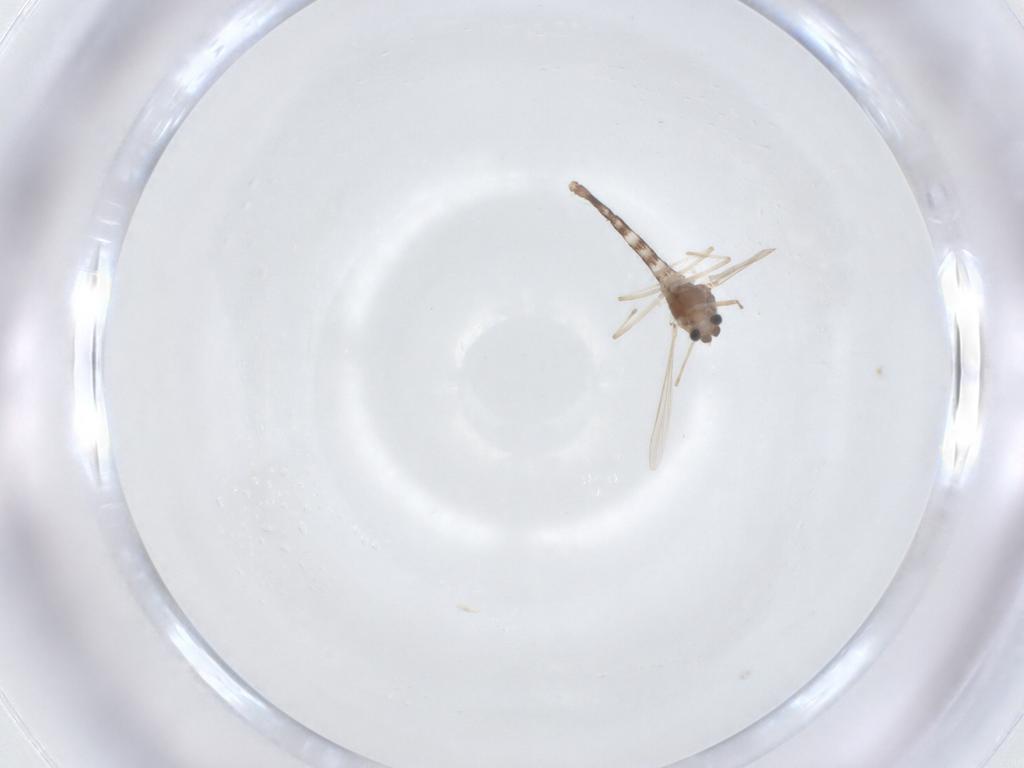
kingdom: Animalia
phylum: Arthropoda
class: Insecta
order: Diptera
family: Chironomidae
